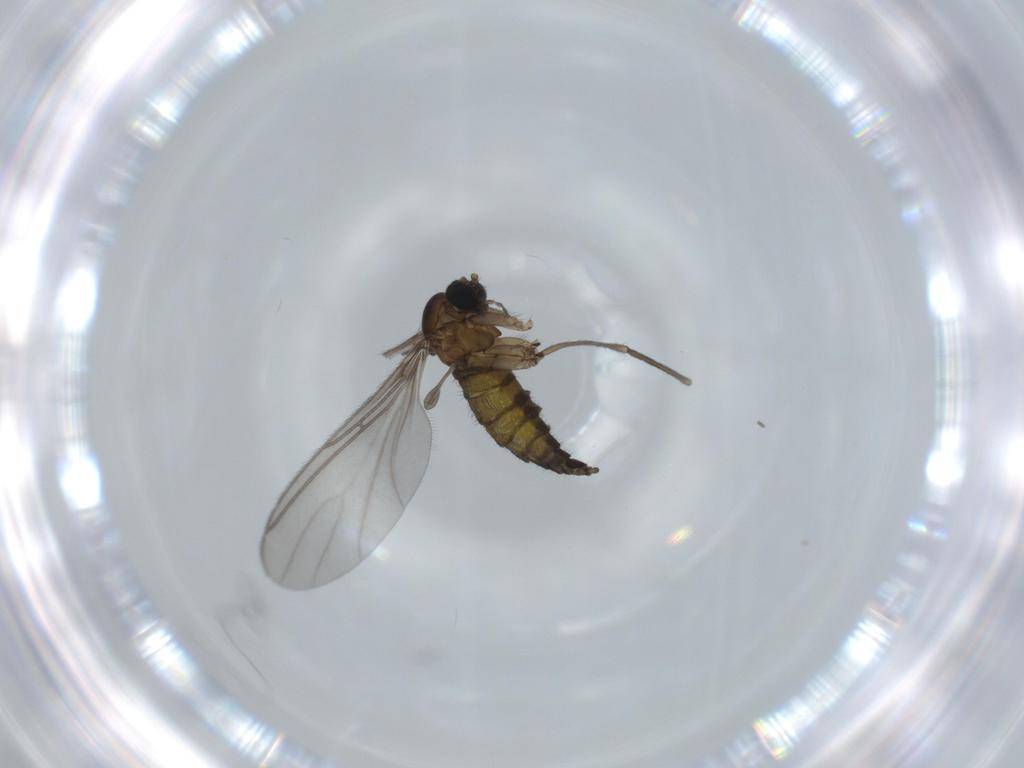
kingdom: Animalia
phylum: Arthropoda
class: Insecta
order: Diptera
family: Sciaridae
